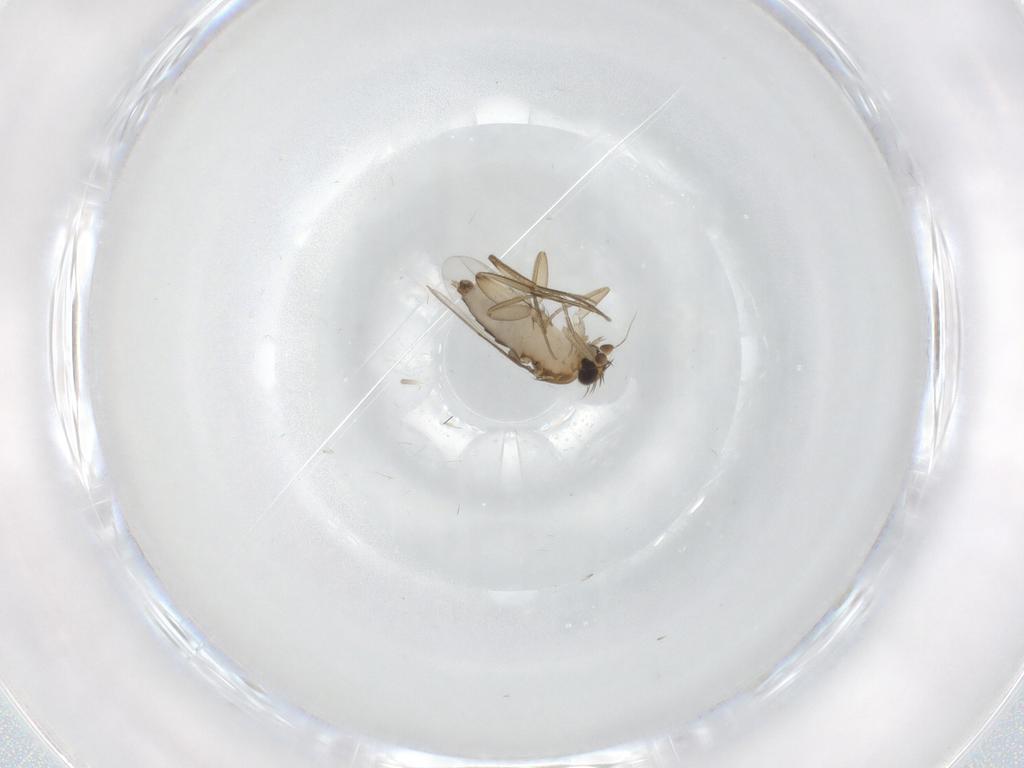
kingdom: Animalia
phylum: Arthropoda
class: Insecta
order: Diptera
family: Phoridae
